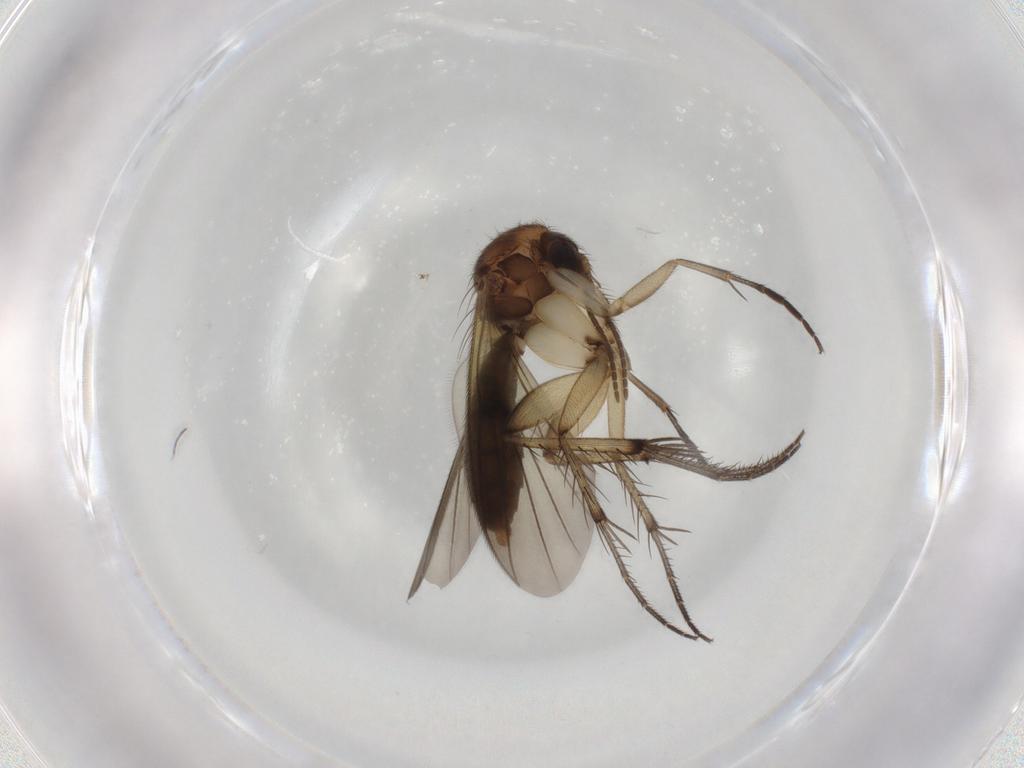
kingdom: Animalia
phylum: Arthropoda
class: Insecta
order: Diptera
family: Mycetophilidae
